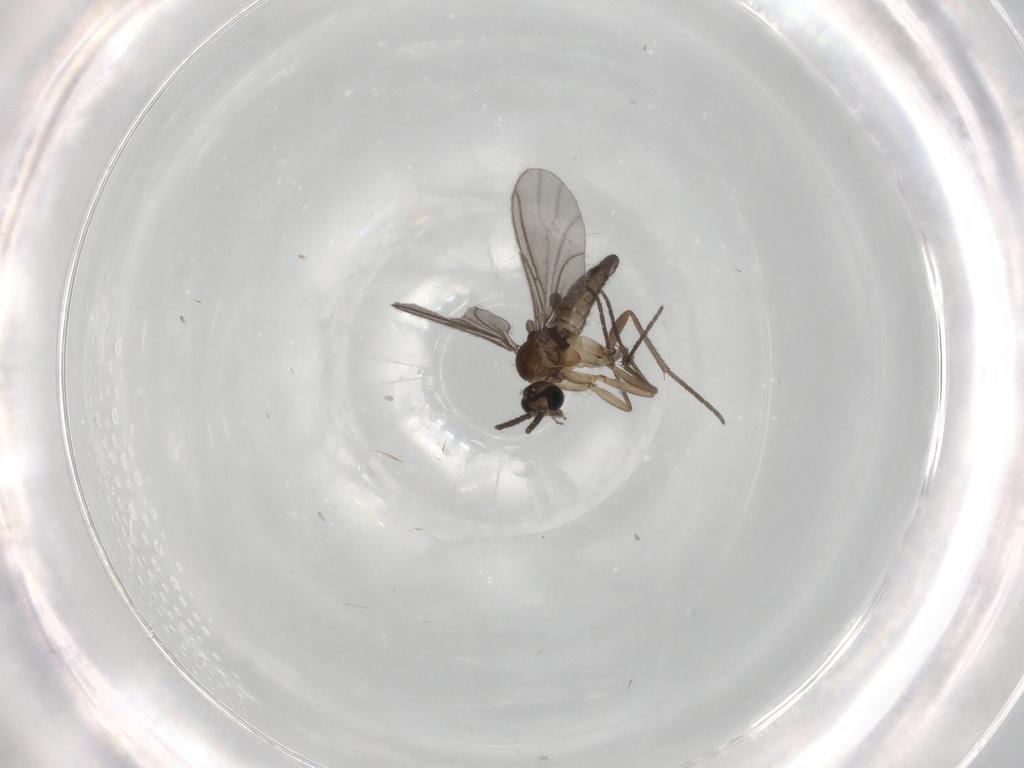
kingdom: Animalia
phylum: Arthropoda
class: Insecta
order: Diptera
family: Sciaridae
